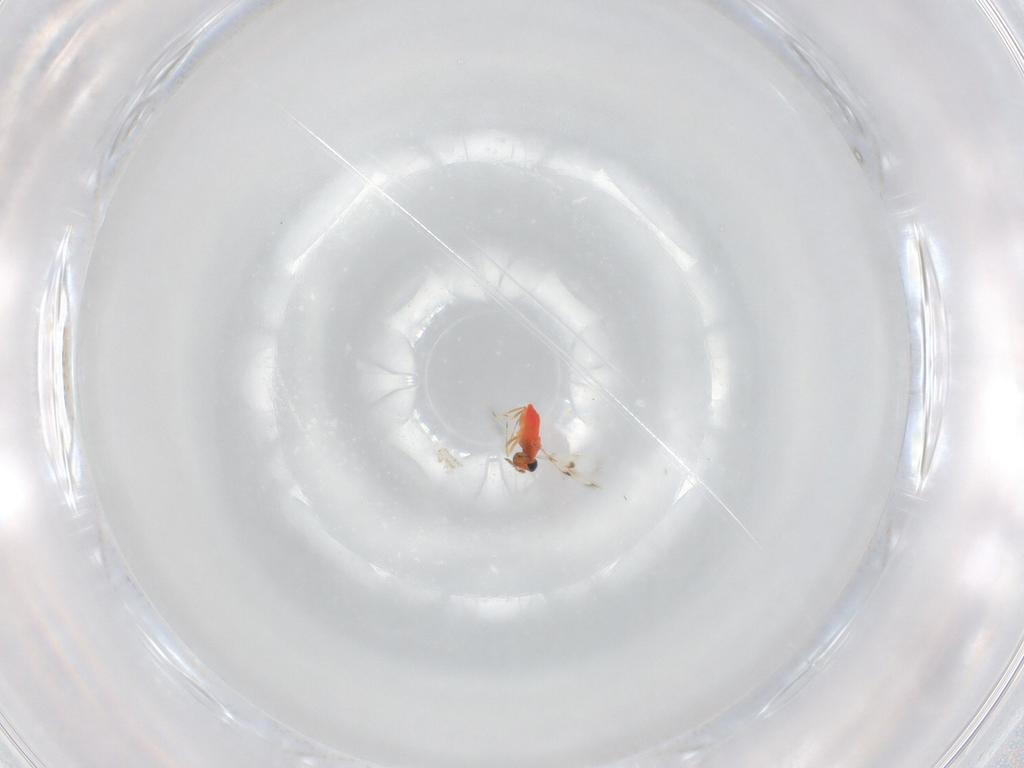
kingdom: Animalia
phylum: Arthropoda
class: Insecta
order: Hymenoptera
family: Trichogrammatidae
